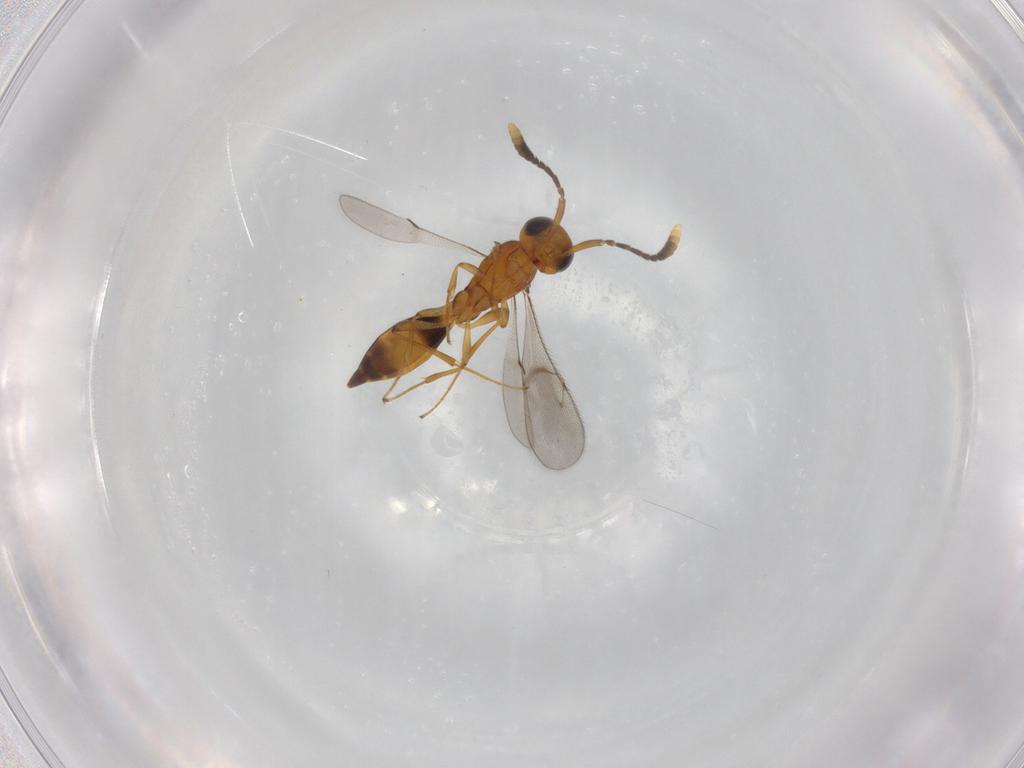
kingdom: Animalia
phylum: Arthropoda
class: Insecta
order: Hymenoptera
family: Scelionidae
